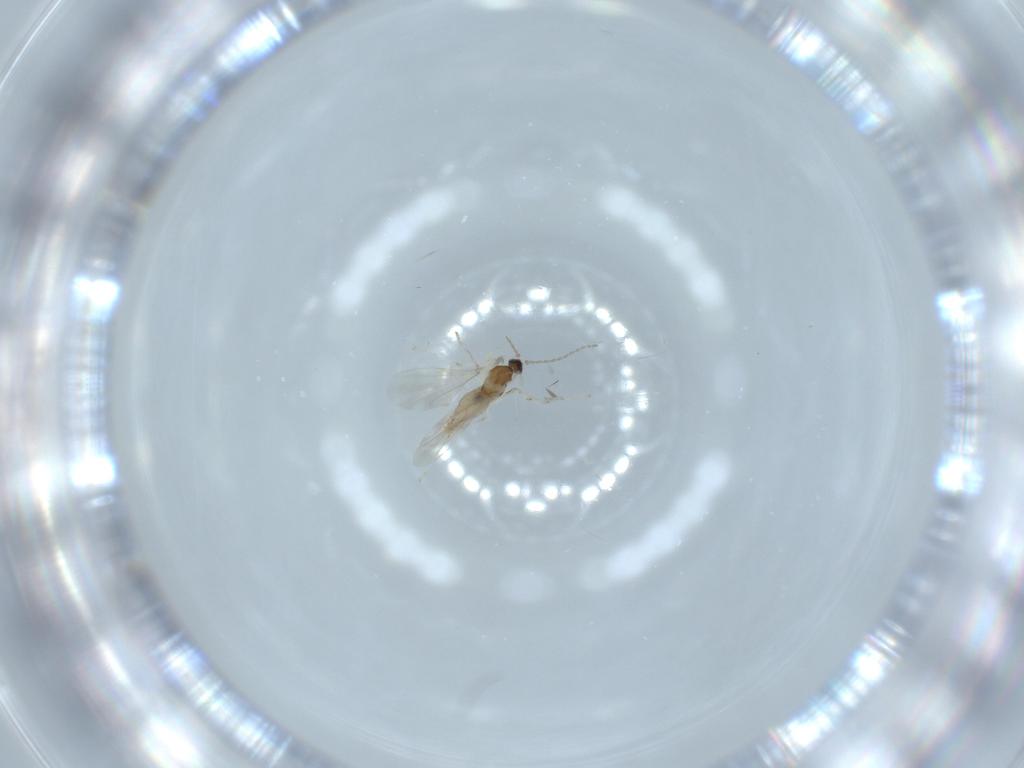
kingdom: Animalia
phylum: Arthropoda
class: Insecta
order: Diptera
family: Cecidomyiidae
